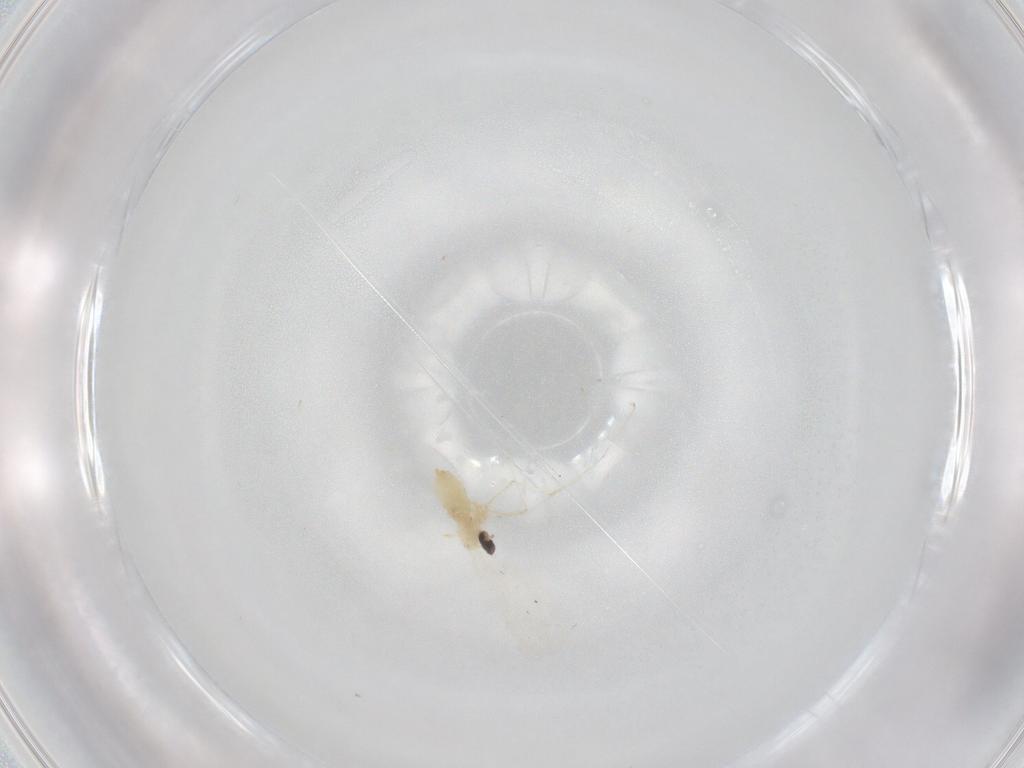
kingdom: Animalia
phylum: Arthropoda
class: Insecta
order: Diptera
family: Cecidomyiidae
